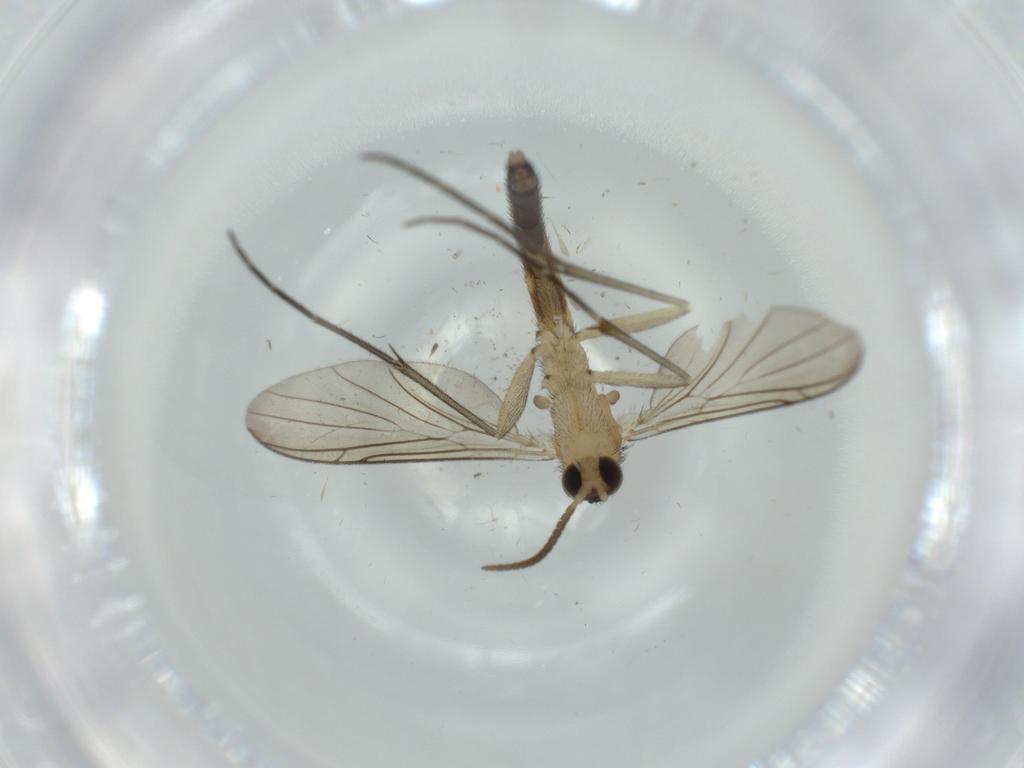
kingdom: Animalia
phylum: Arthropoda
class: Insecta
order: Diptera
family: Keroplatidae
